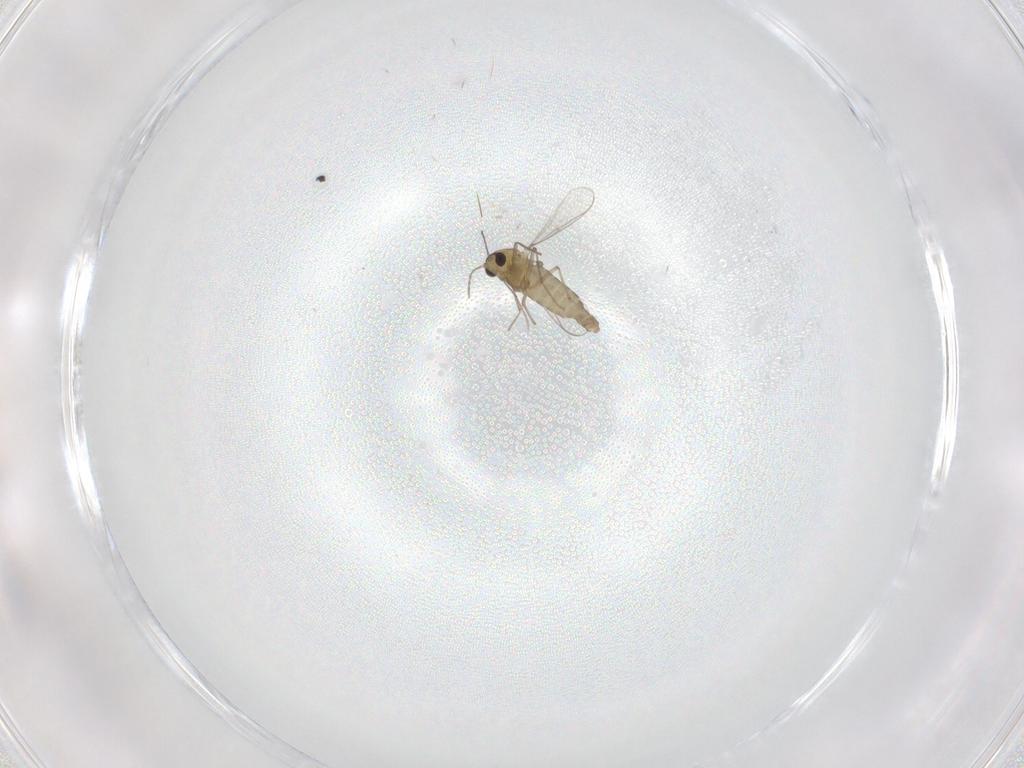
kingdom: Animalia
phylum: Arthropoda
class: Insecta
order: Diptera
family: Chironomidae
